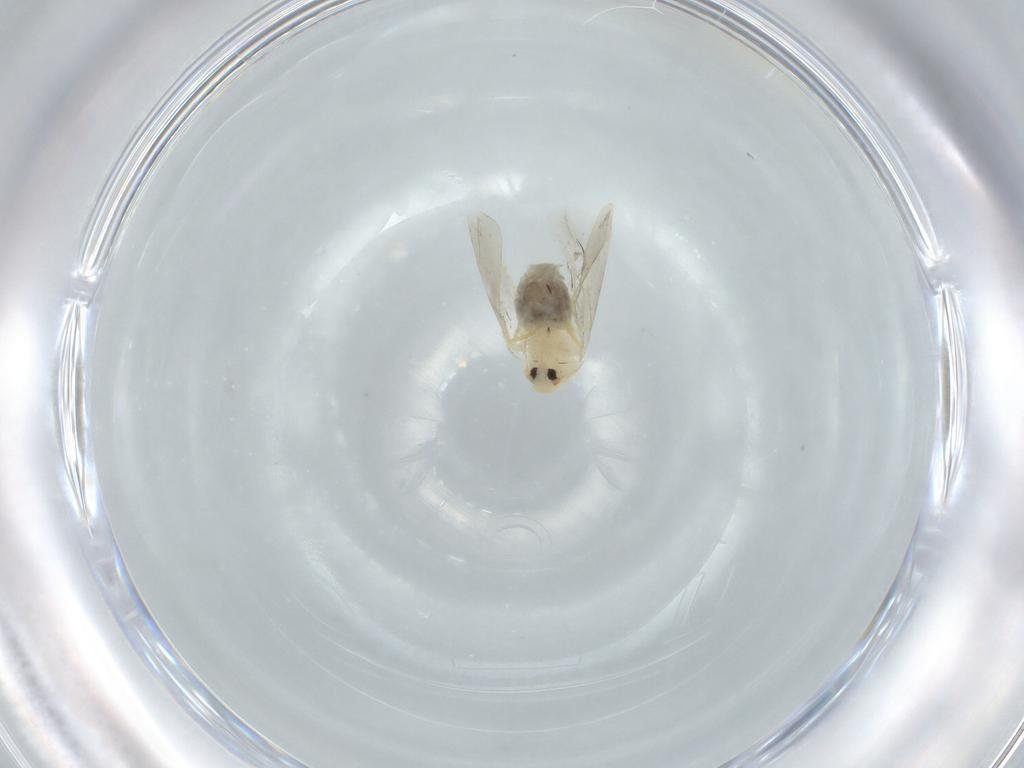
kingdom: Animalia
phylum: Arthropoda
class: Insecta
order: Hemiptera
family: Aleyrodidae
